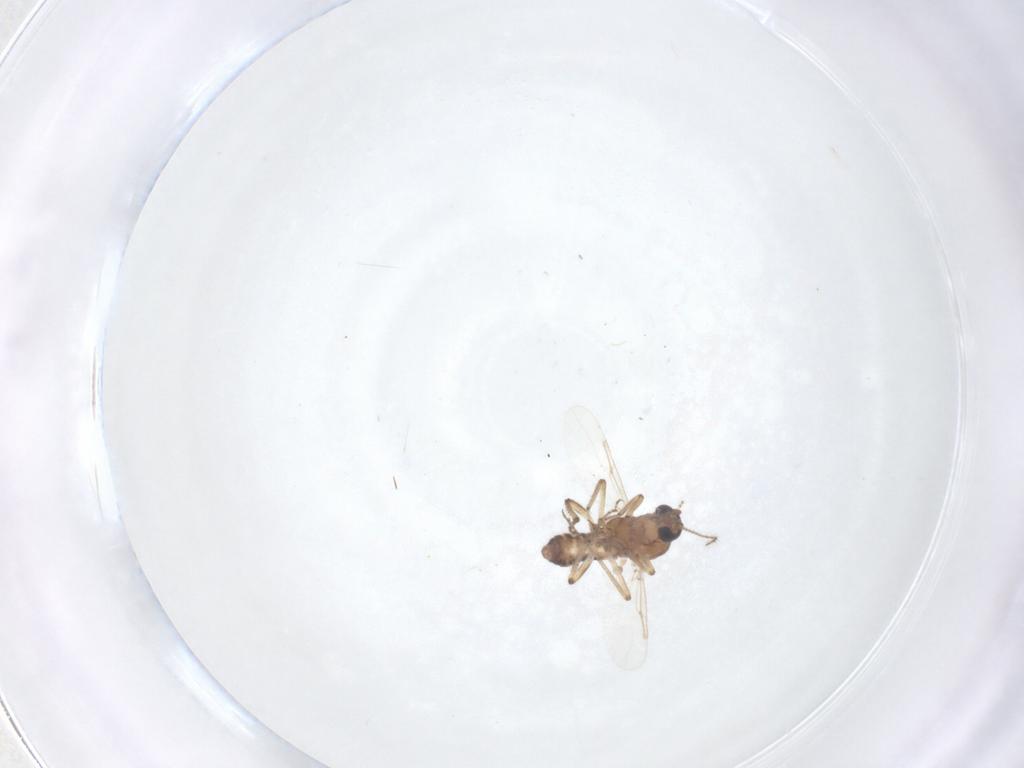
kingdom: Animalia
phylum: Arthropoda
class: Insecta
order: Diptera
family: Ceratopogonidae
